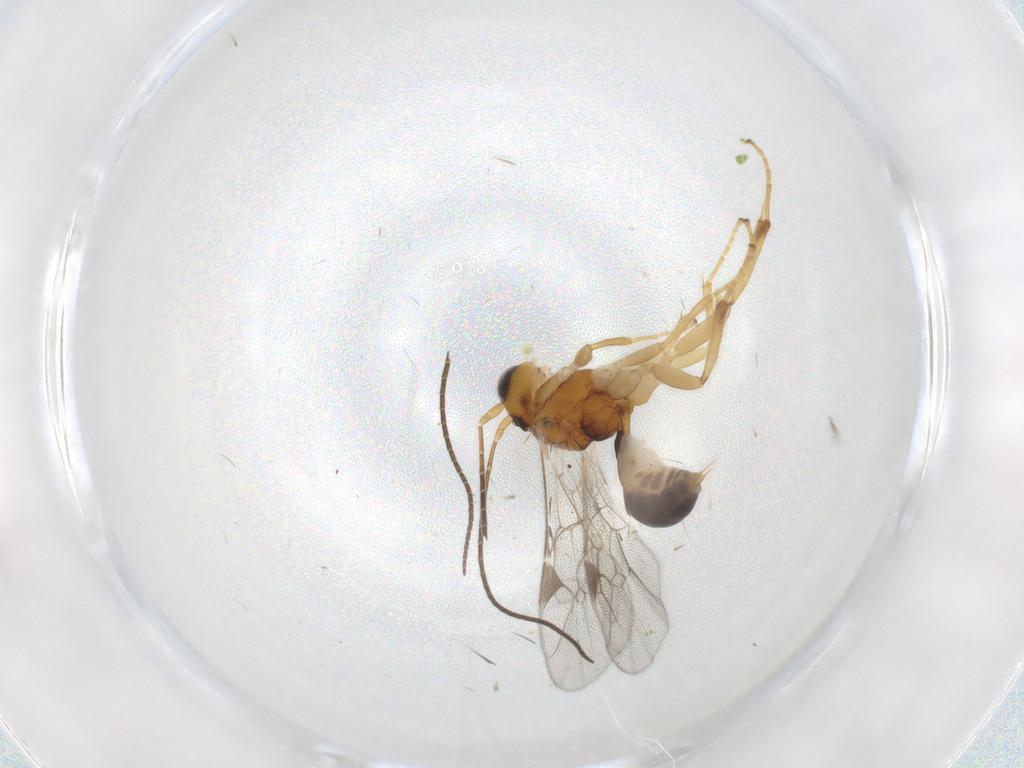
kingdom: Animalia
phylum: Arthropoda
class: Insecta
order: Hymenoptera
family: Ichneumonidae
